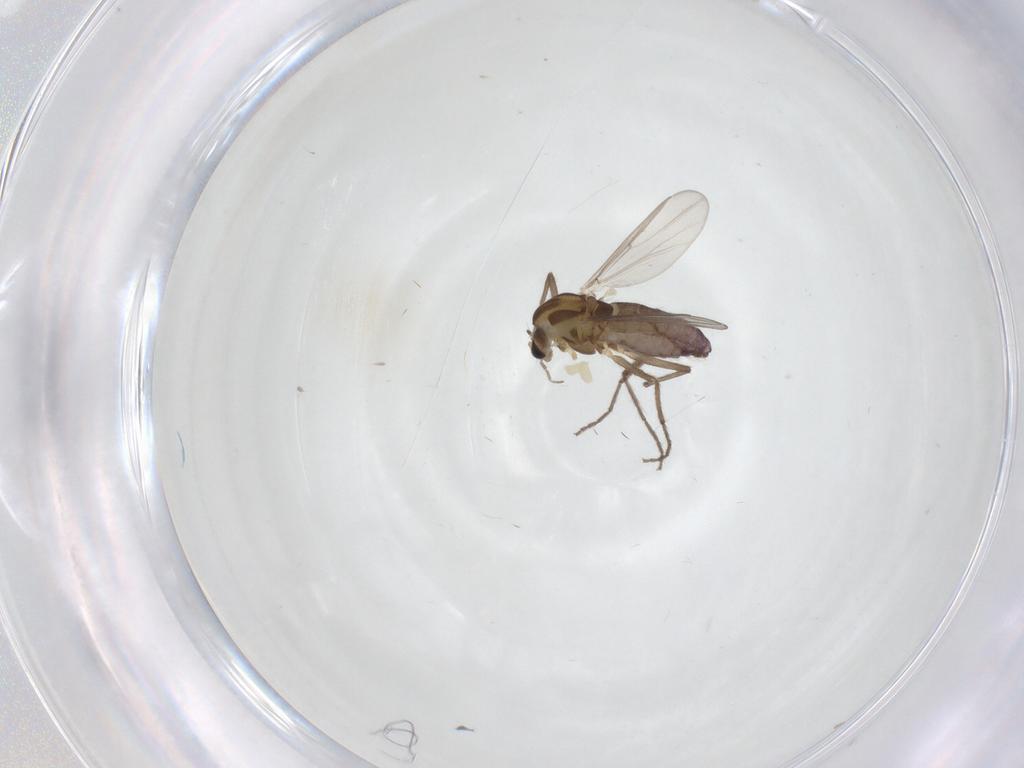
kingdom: Animalia
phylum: Arthropoda
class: Insecta
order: Diptera
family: Chironomidae
